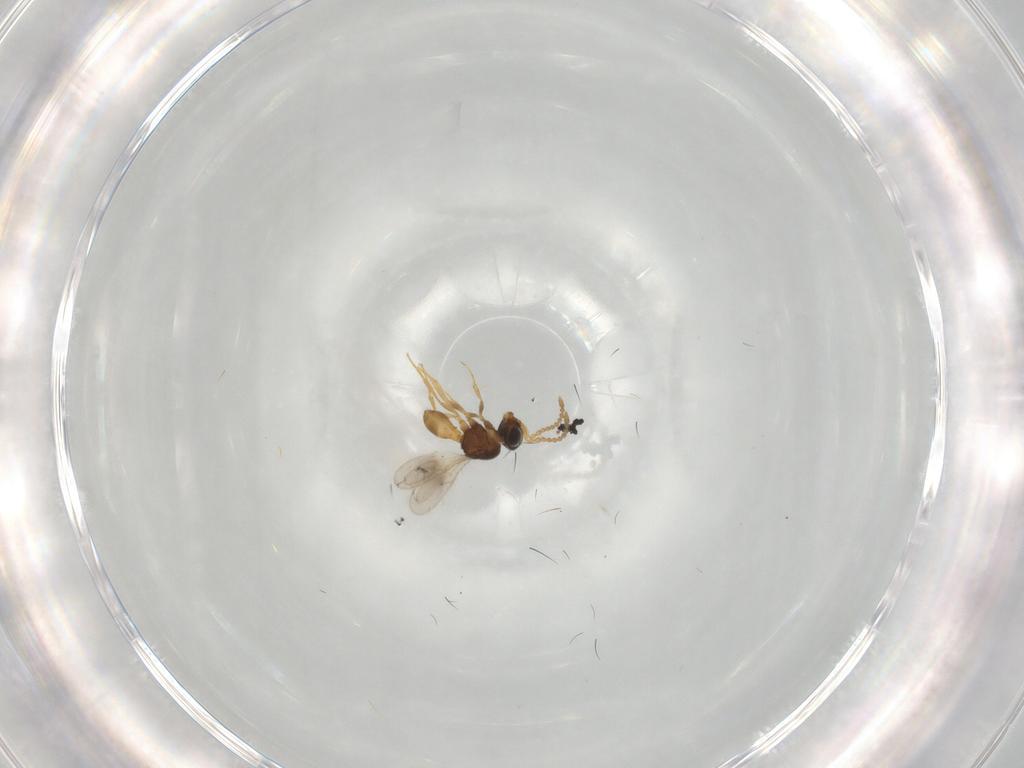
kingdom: Animalia
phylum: Arthropoda
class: Insecta
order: Hymenoptera
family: Scelionidae
